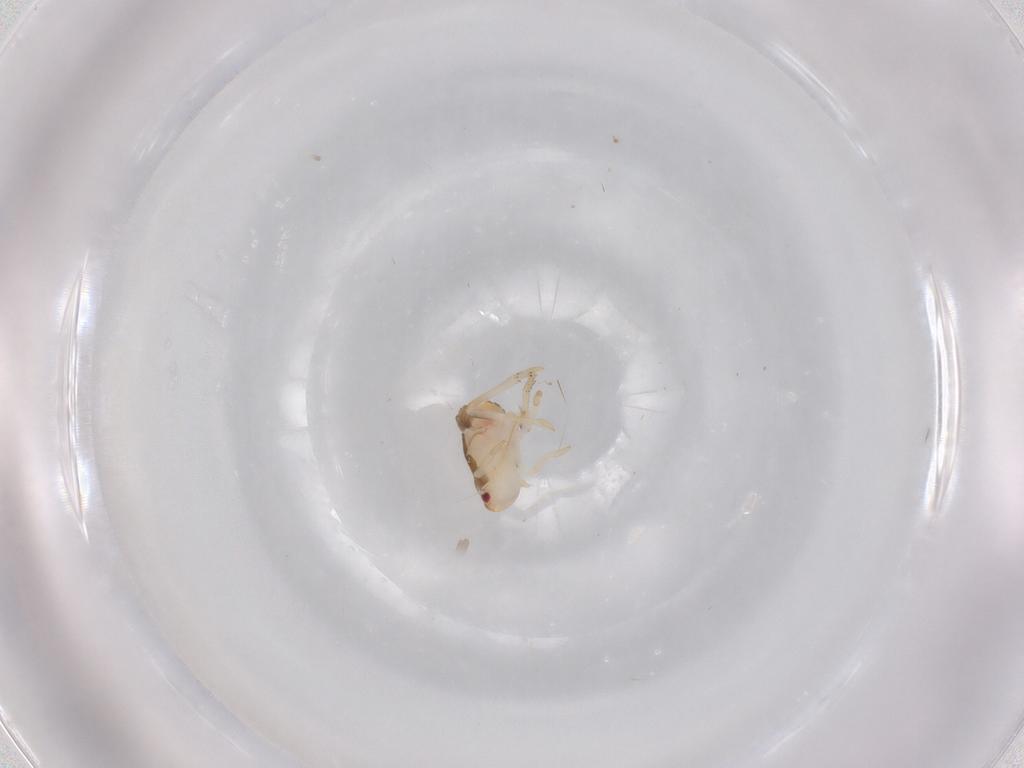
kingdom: Animalia
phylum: Arthropoda
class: Insecta
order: Diptera
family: Chironomidae
